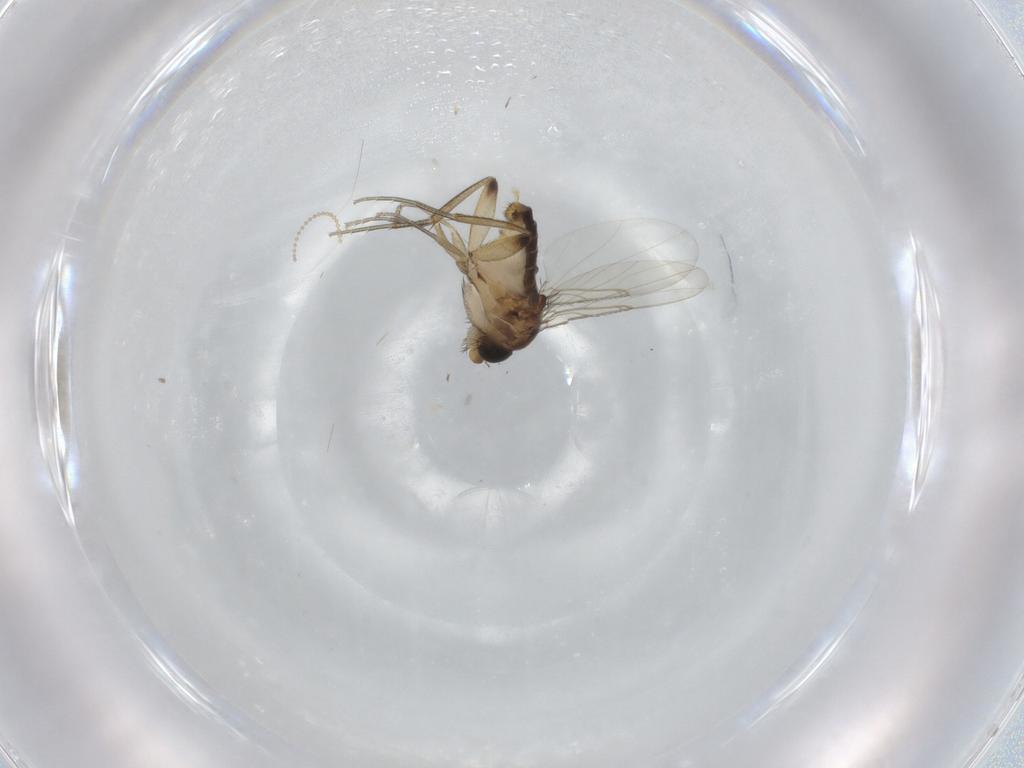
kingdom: Animalia
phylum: Arthropoda
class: Insecta
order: Diptera
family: Phoridae
